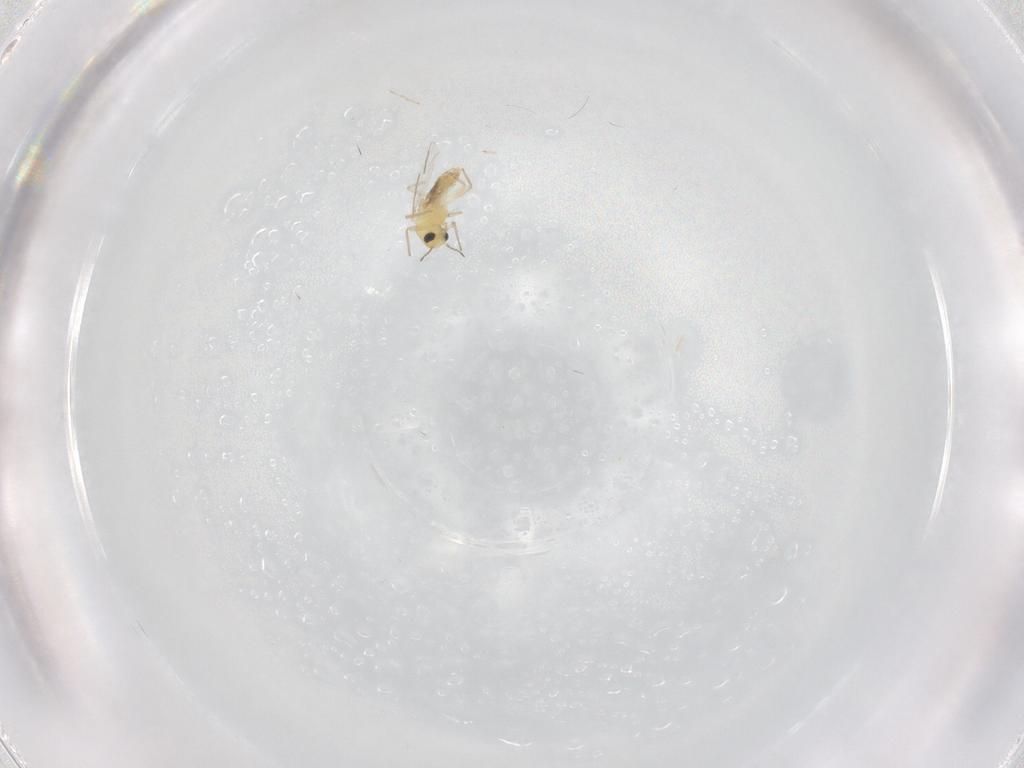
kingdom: Animalia
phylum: Arthropoda
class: Insecta
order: Diptera
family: Chironomidae
